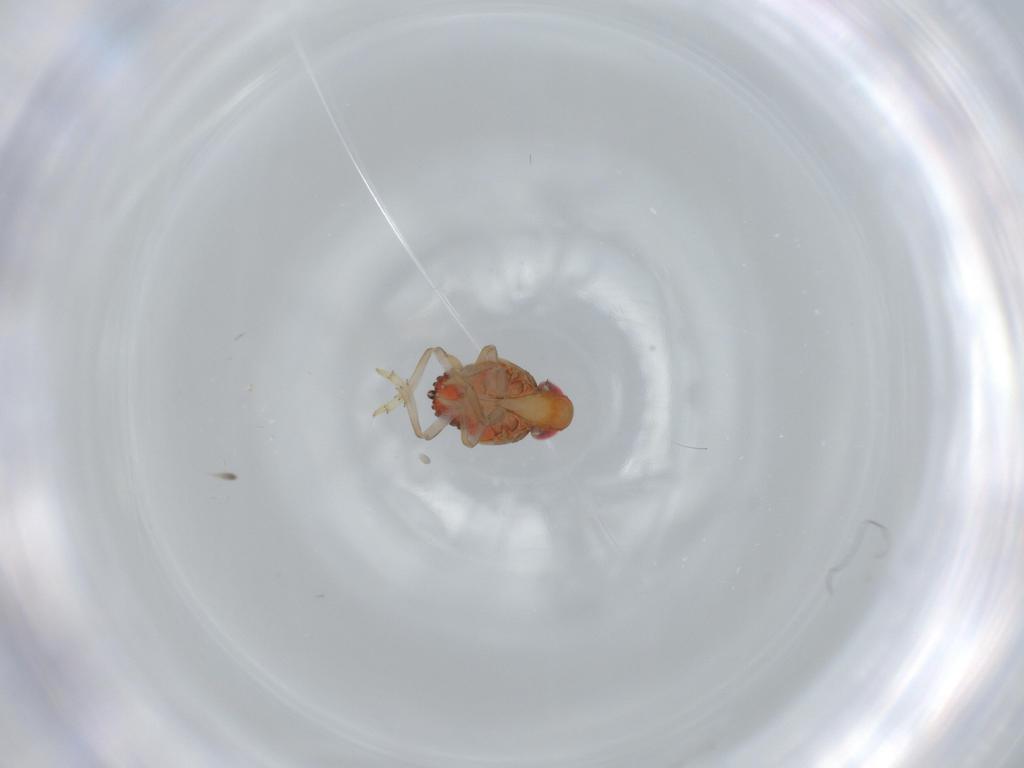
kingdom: Animalia
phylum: Arthropoda
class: Insecta
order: Hemiptera
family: Issidae
